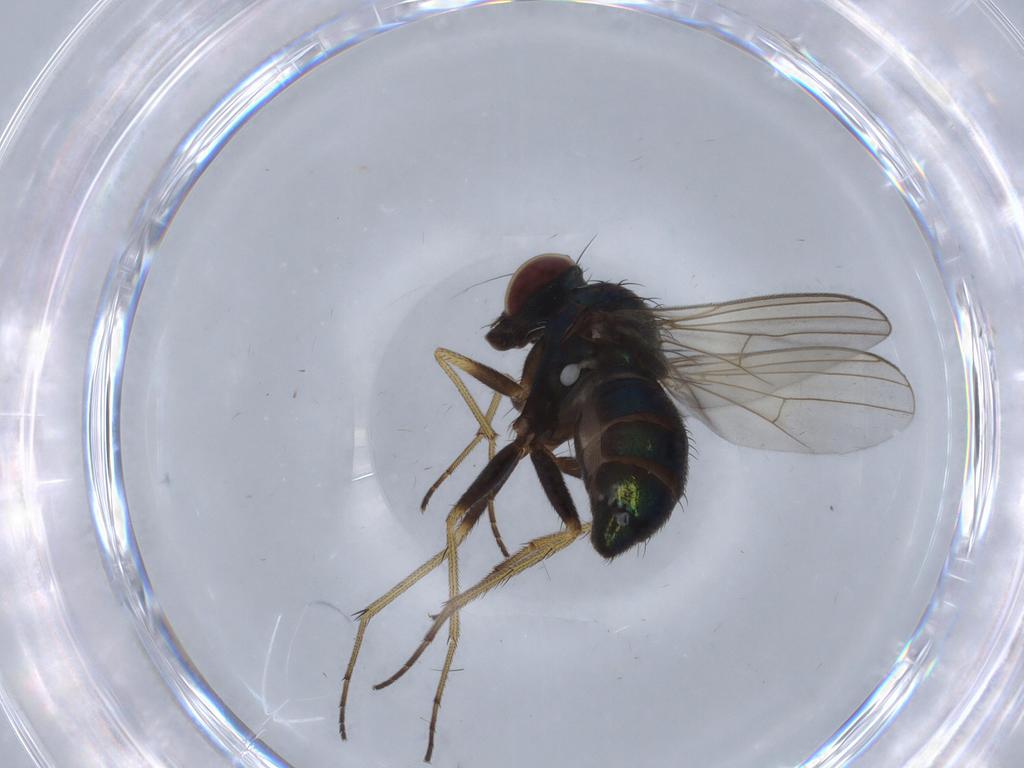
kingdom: Animalia
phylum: Arthropoda
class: Insecta
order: Diptera
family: Dolichopodidae
